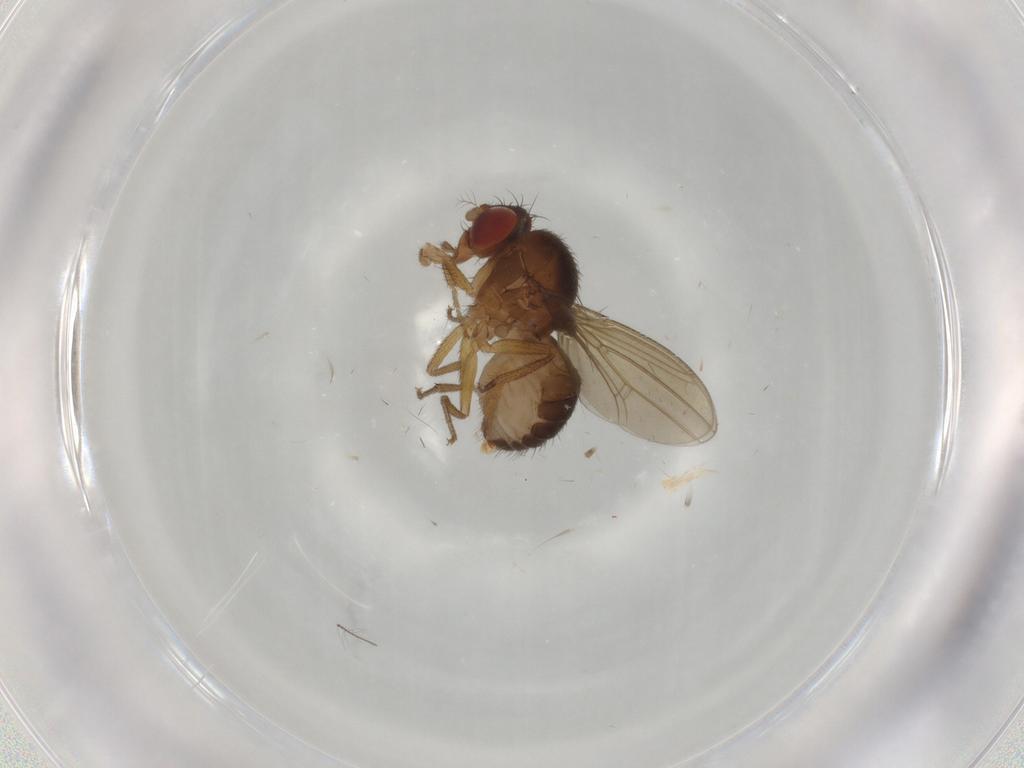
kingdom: Animalia
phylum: Arthropoda
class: Insecta
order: Diptera
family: Drosophilidae
